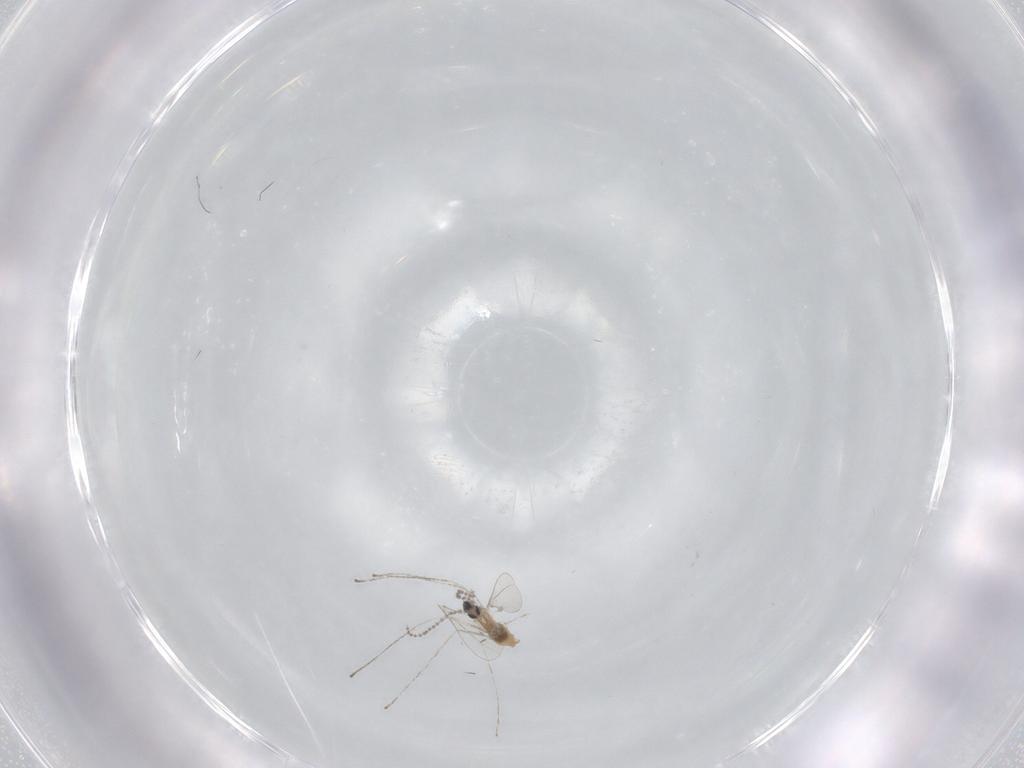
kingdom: Animalia
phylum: Arthropoda
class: Insecta
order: Diptera
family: Cecidomyiidae
